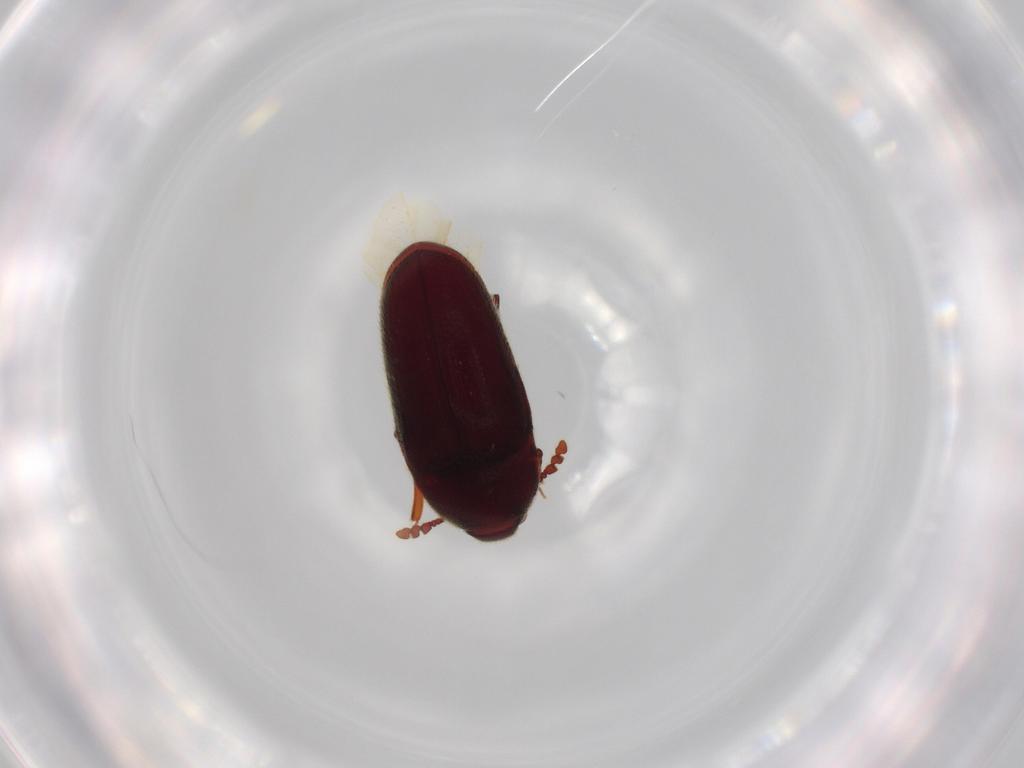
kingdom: Animalia
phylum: Arthropoda
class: Insecta
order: Coleoptera
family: Throscidae
